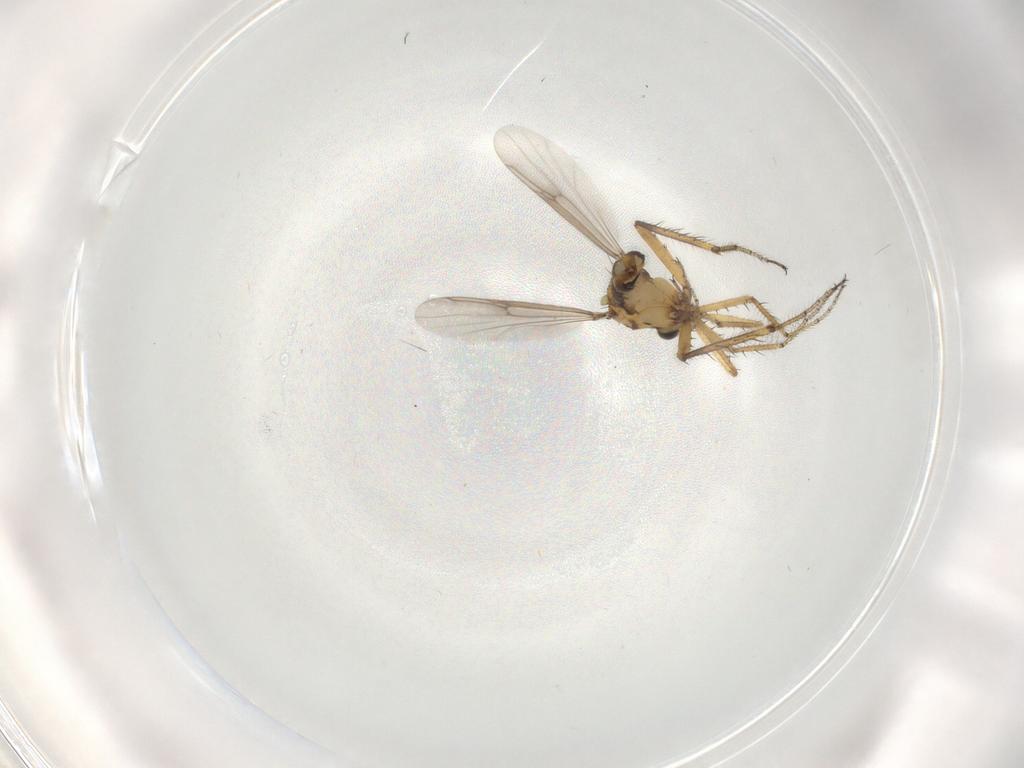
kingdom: Animalia
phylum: Arthropoda
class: Insecta
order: Diptera
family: Ceratopogonidae
